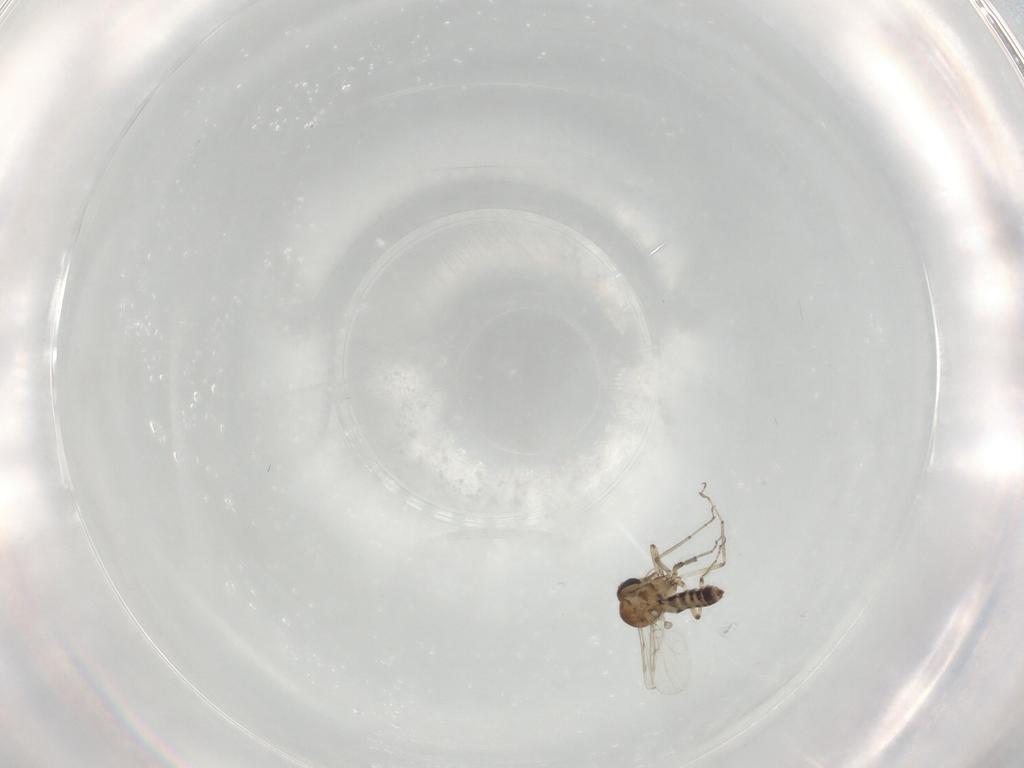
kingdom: Animalia
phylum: Arthropoda
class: Insecta
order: Diptera
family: Ceratopogonidae
